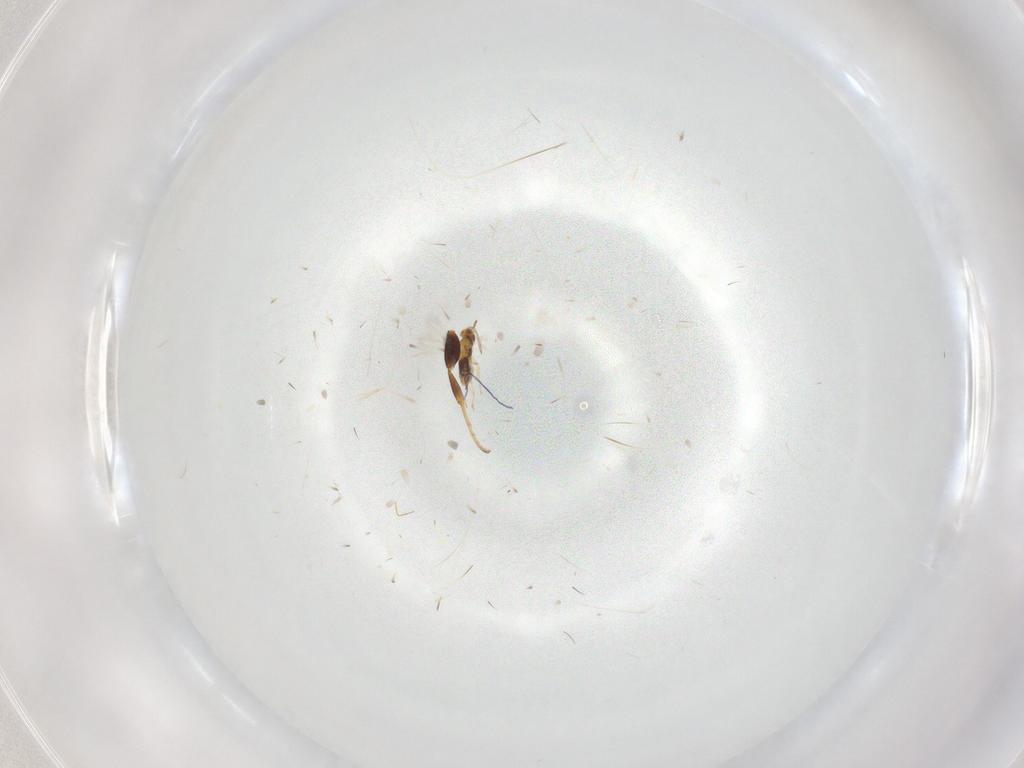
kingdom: Animalia
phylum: Arthropoda
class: Insecta
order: Hymenoptera
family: Bethylidae
